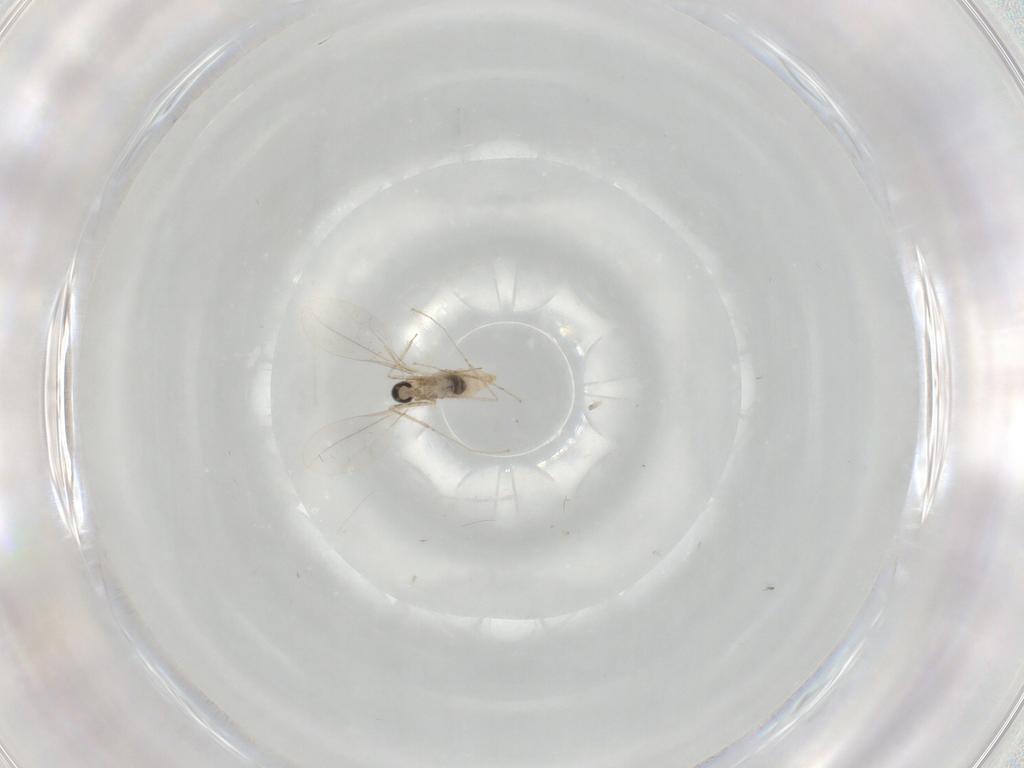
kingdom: Animalia
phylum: Arthropoda
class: Insecta
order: Diptera
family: Cecidomyiidae
